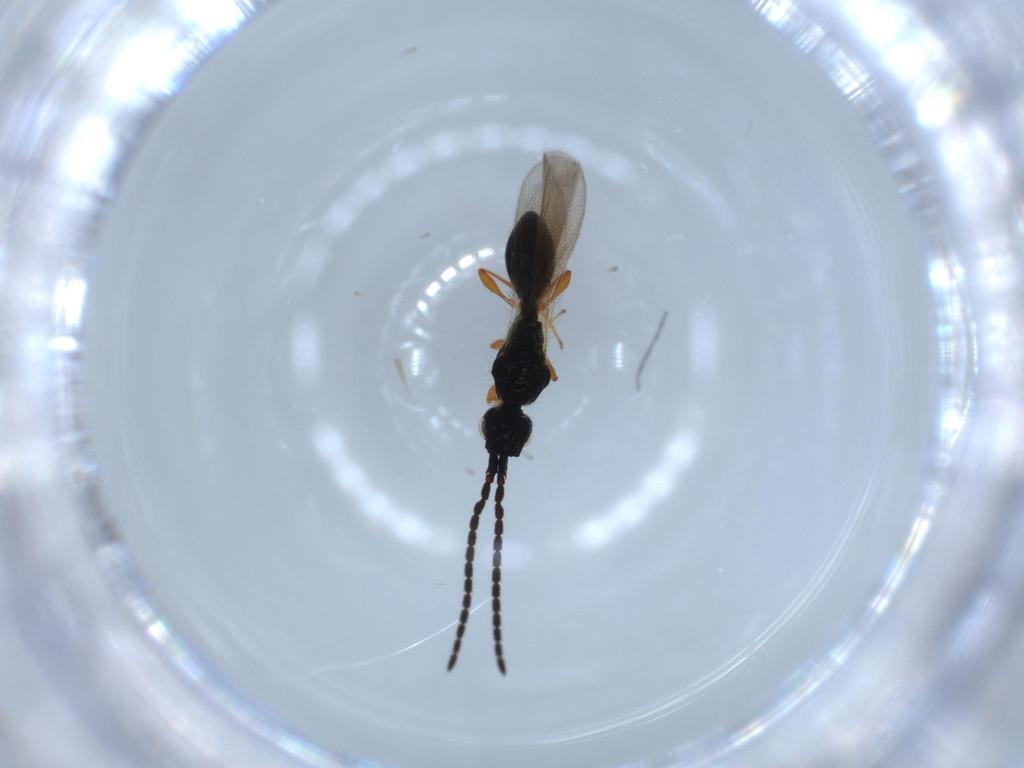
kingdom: Animalia
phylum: Arthropoda
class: Insecta
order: Hymenoptera
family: Diapriidae
